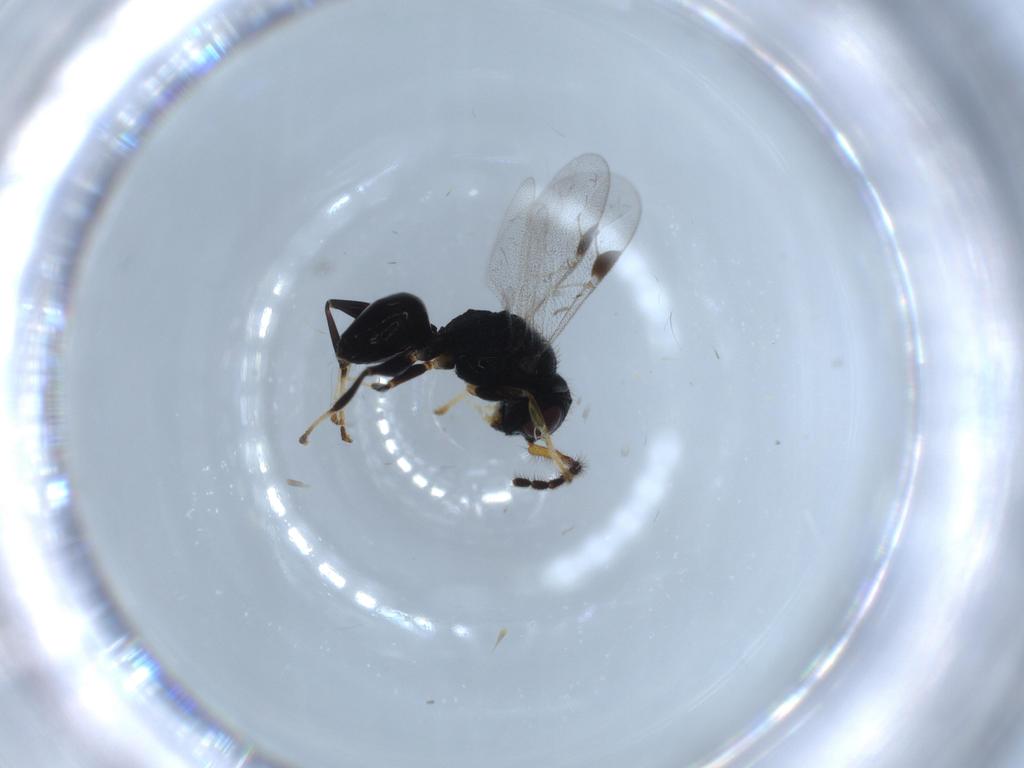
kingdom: Animalia
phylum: Arthropoda
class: Insecta
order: Hymenoptera
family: Dryinidae
